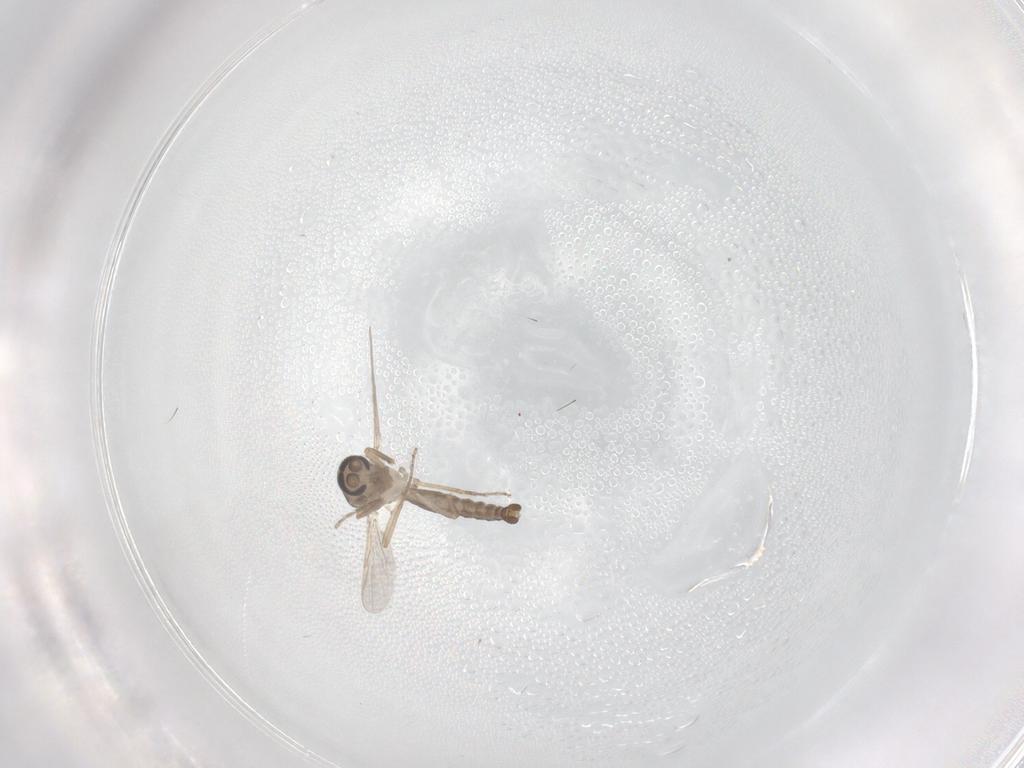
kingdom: Animalia
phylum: Arthropoda
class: Insecta
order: Diptera
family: Ceratopogonidae
